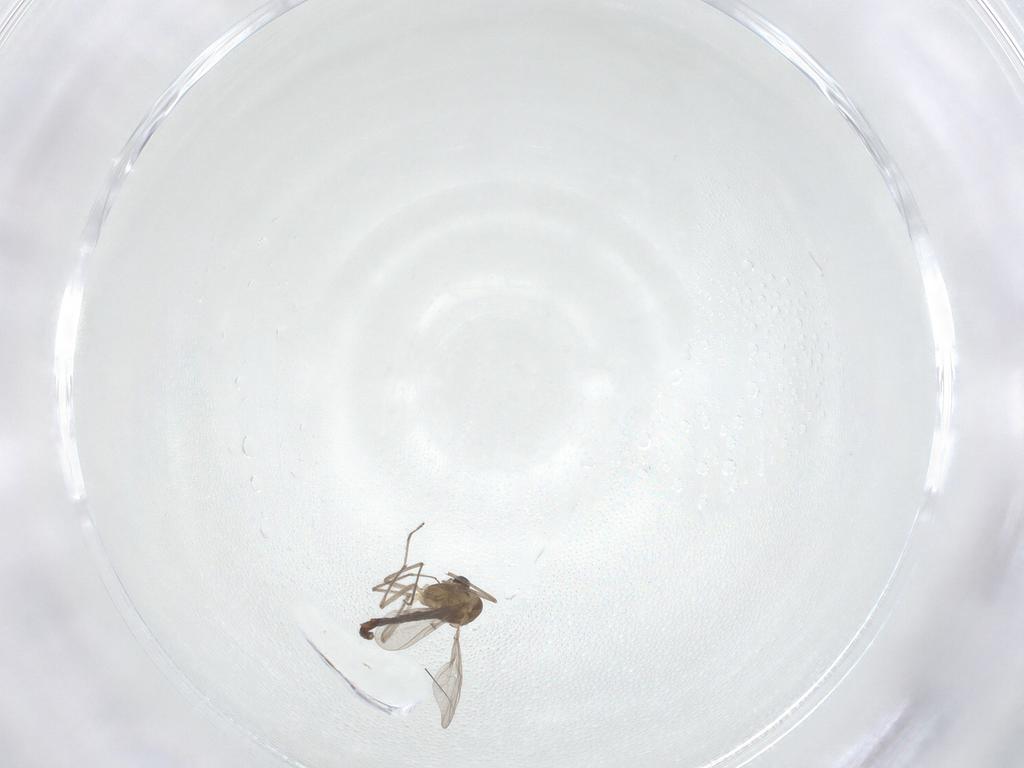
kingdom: Animalia
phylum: Arthropoda
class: Insecta
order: Diptera
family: Chironomidae
